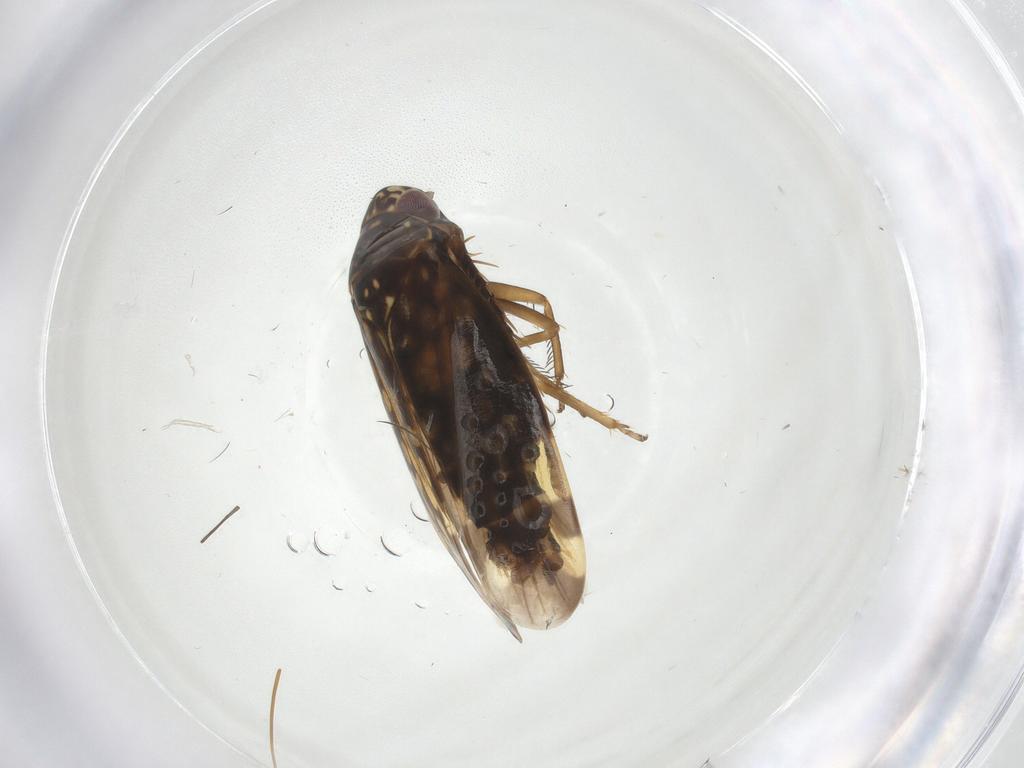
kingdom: Animalia
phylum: Arthropoda
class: Insecta
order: Hemiptera
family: Cicadellidae
